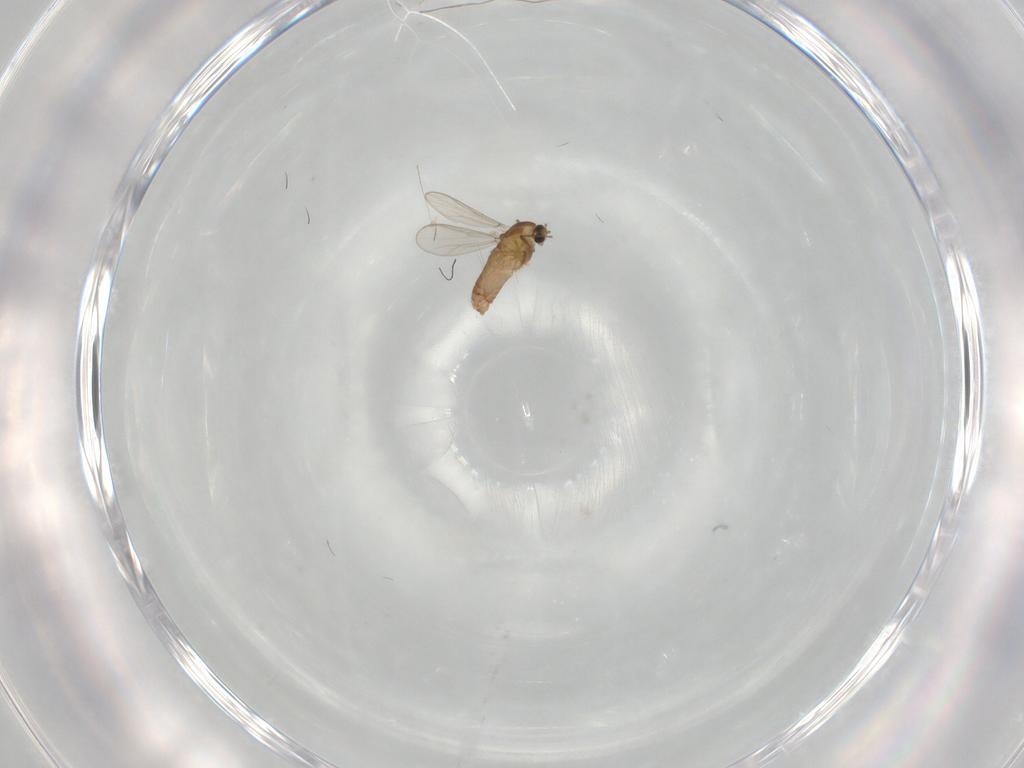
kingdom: Animalia
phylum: Arthropoda
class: Insecta
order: Diptera
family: Chironomidae
